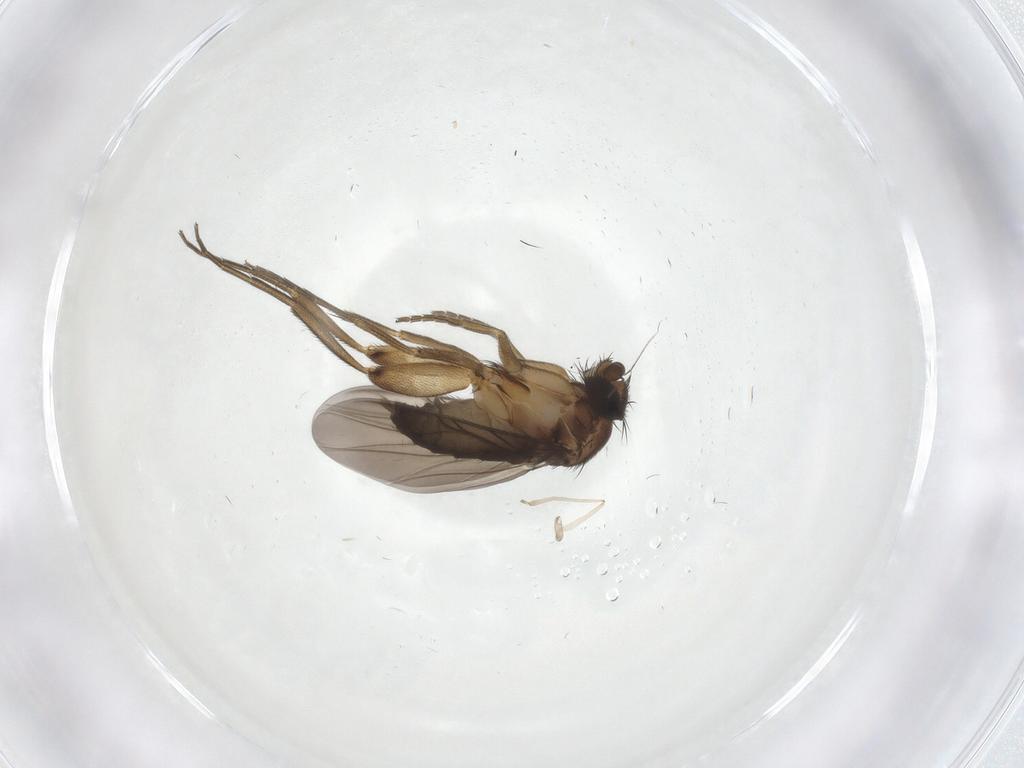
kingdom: Animalia
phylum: Arthropoda
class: Insecta
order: Diptera
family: Phoridae
